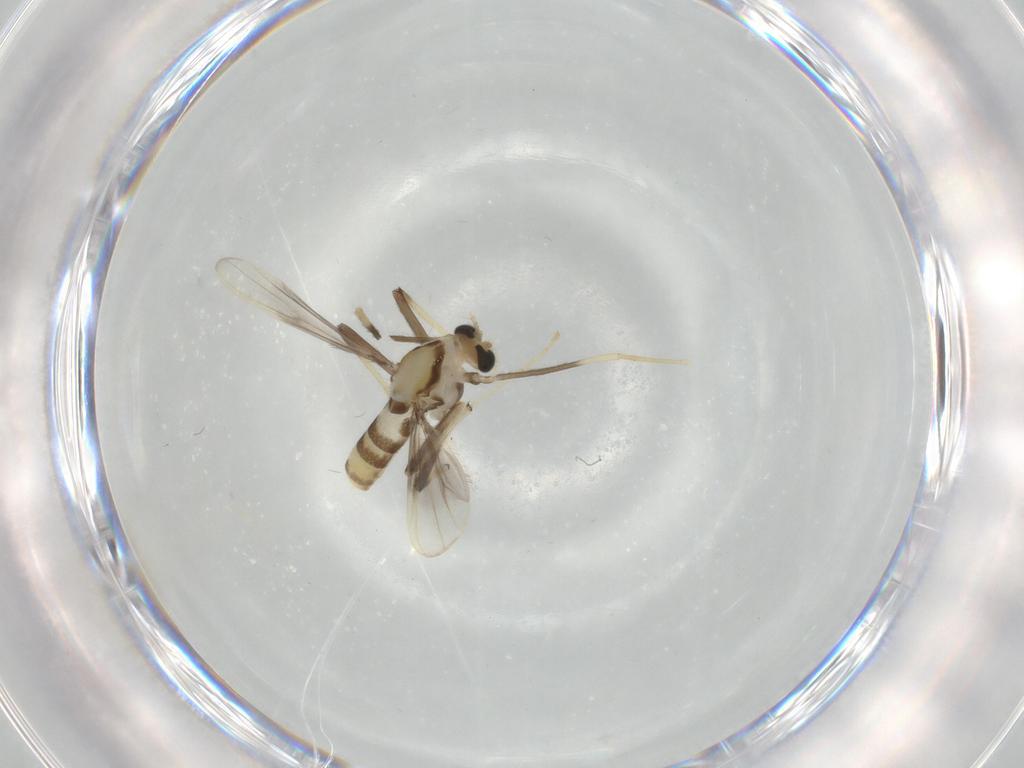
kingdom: Animalia
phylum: Arthropoda
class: Insecta
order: Diptera
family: Chironomidae
